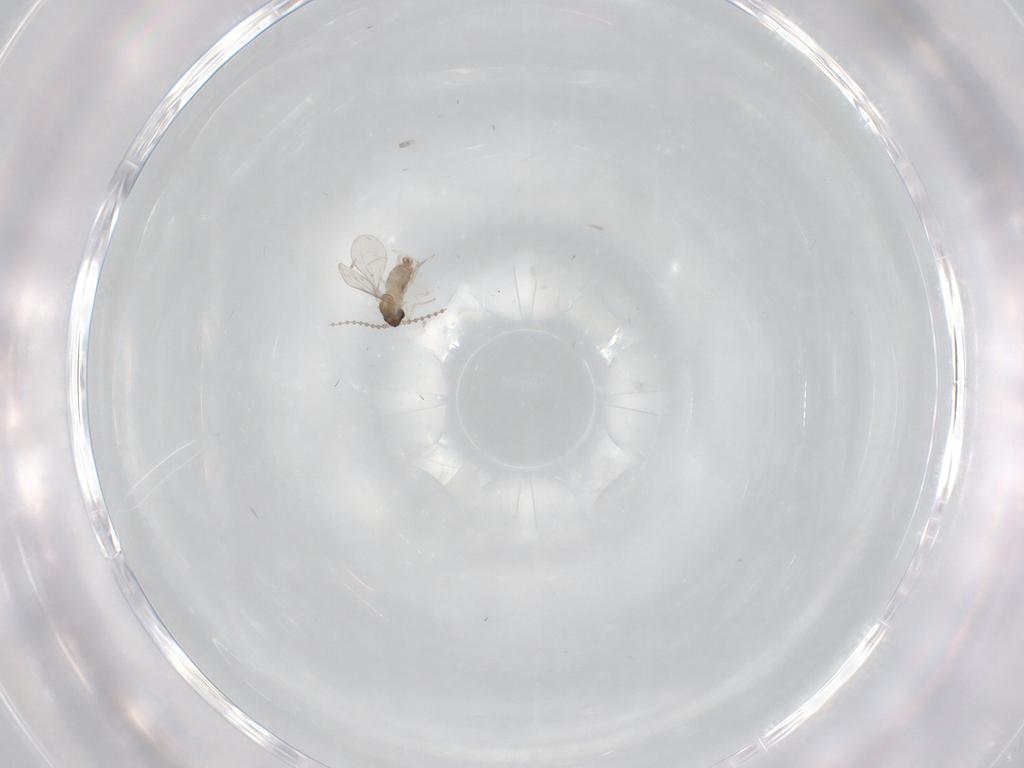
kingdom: Animalia
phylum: Arthropoda
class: Insecta
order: Diptera
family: Cecidomyiidae
